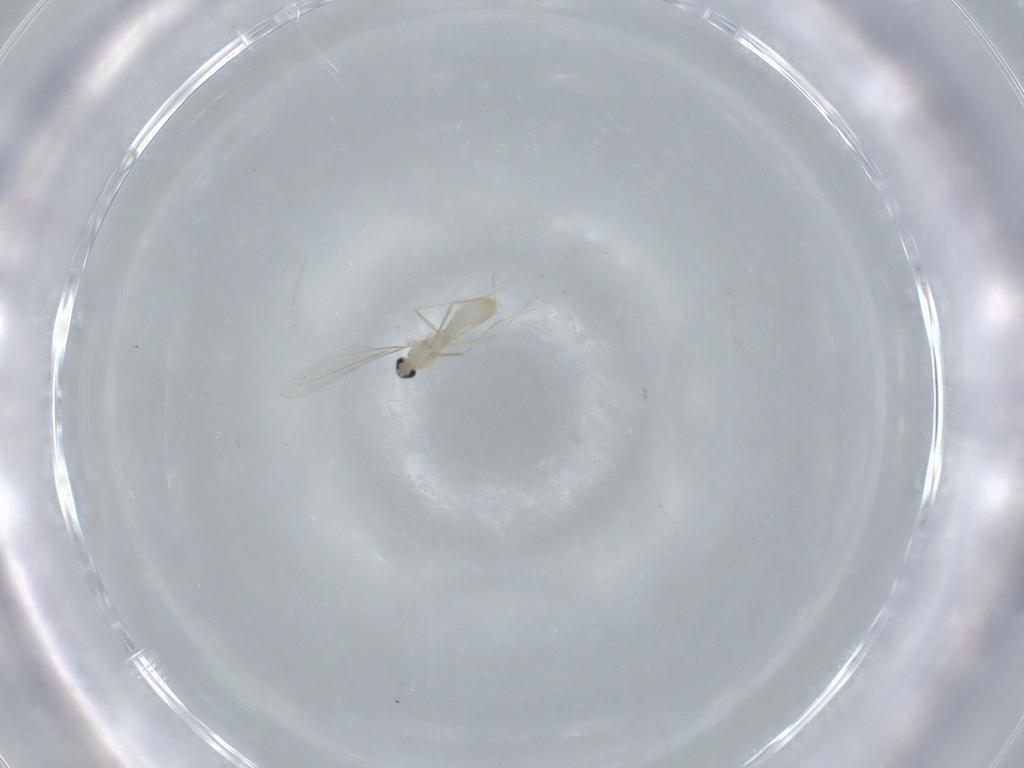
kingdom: Animalia
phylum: Arthropoda
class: Insecta
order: Diptera
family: Cecidomyiidae
